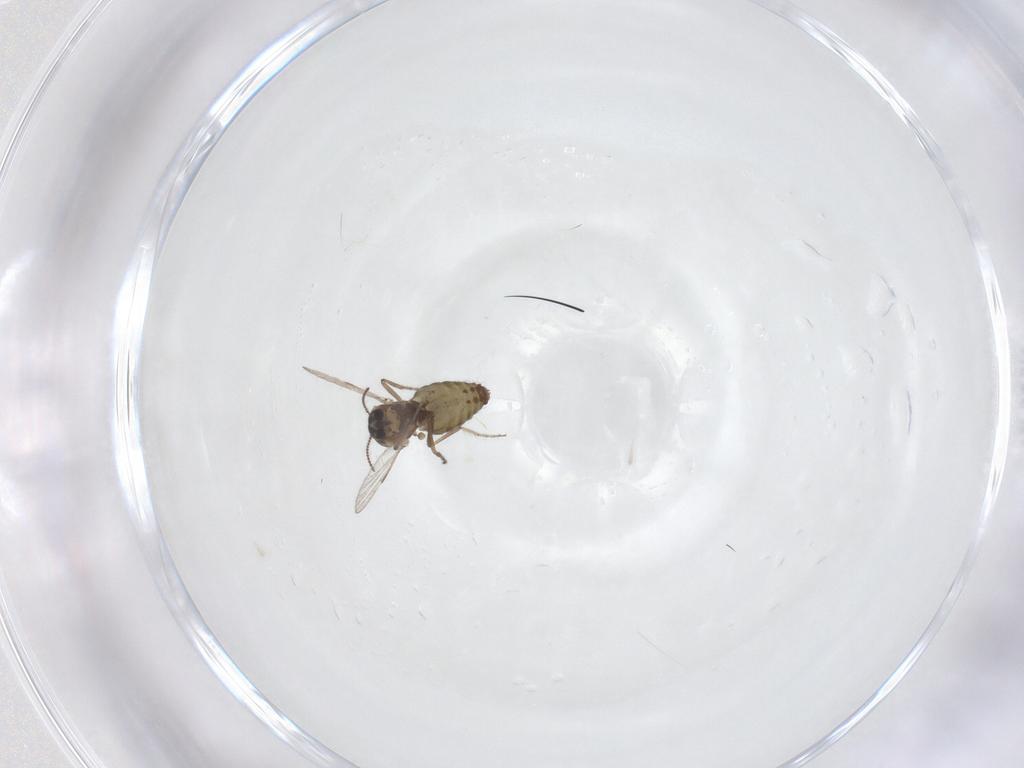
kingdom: Animalia
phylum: Arthropoda
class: Insecta
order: Diptera
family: Ceratopogonidae
